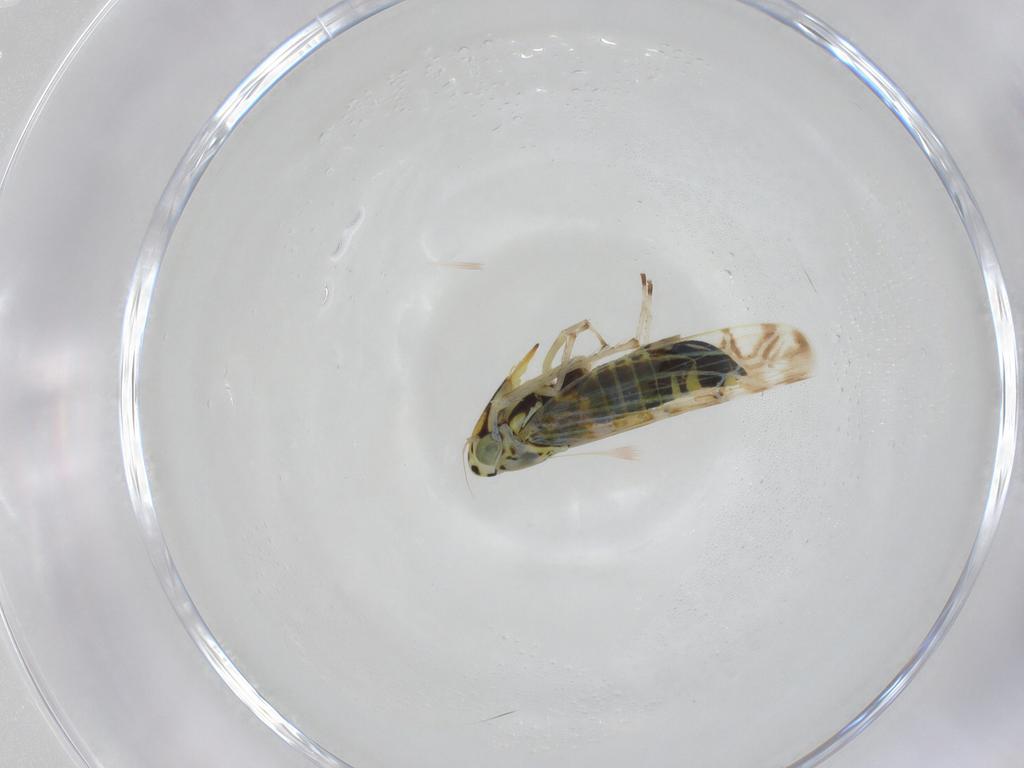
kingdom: Animalia
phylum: Arthropoda
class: Insecta
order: Hemiptera
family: Cicadellidae
